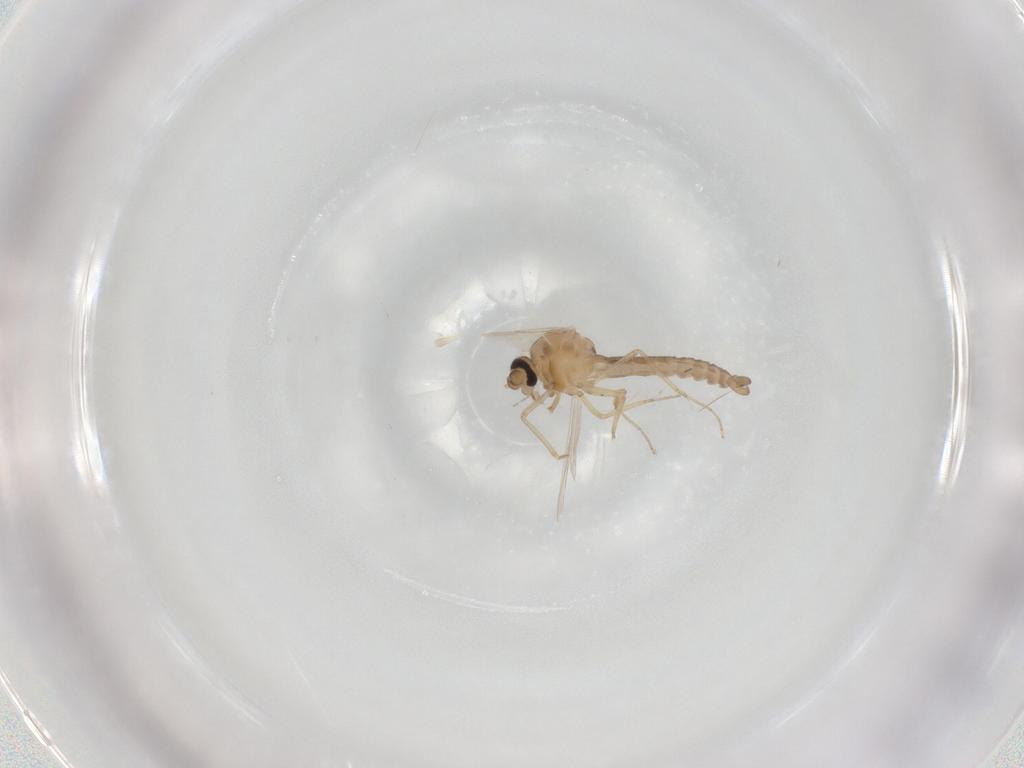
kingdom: Animalia
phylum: Arthropoda
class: Insecta
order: Diptera
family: Ceratopogonidae
